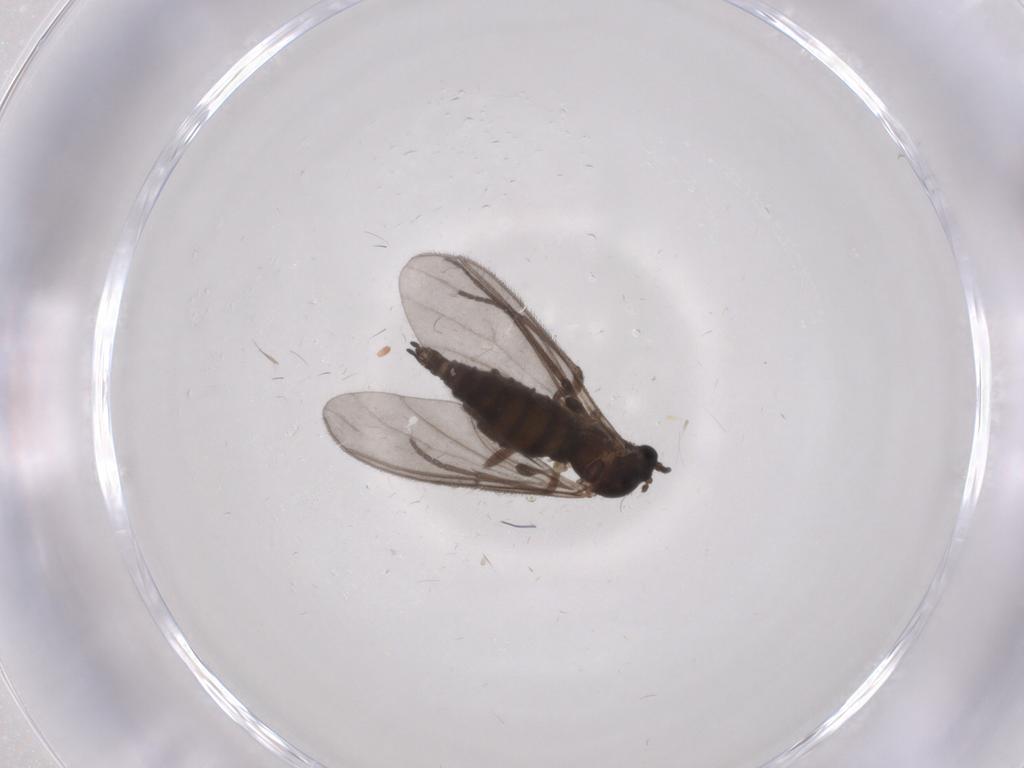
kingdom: Animalia
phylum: Arthropoda
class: Insecta
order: Diptera
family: Sciaridae
